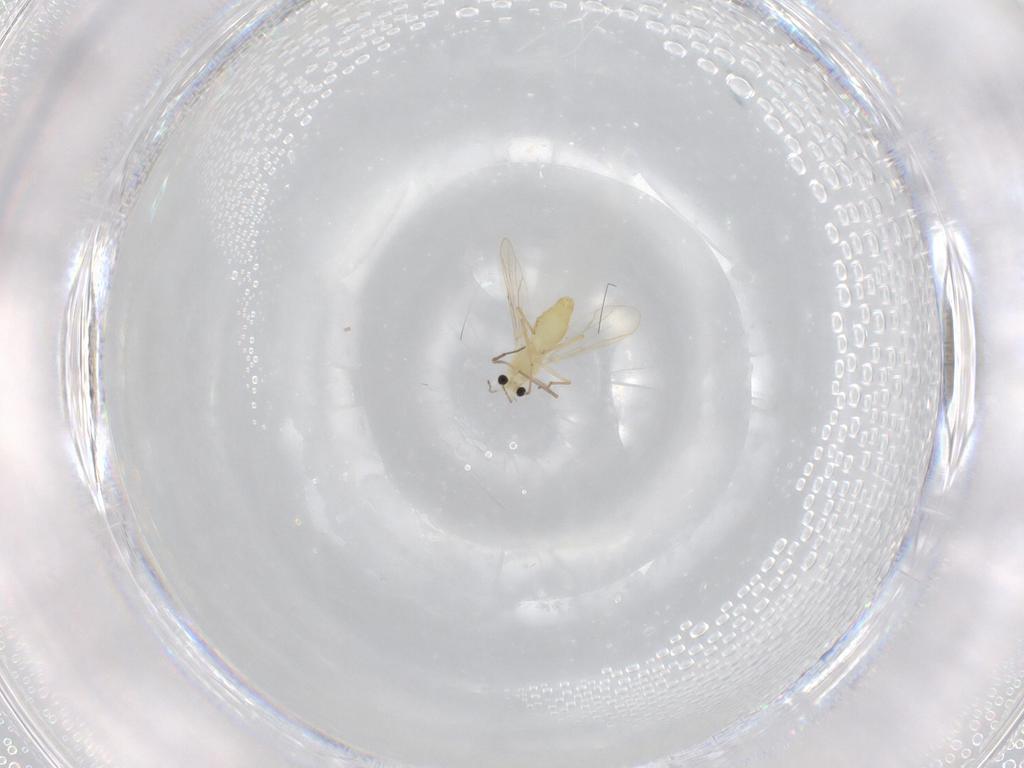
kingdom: Animalia
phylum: Arthropoda
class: Insecta
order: Diptera
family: Chironomidae
